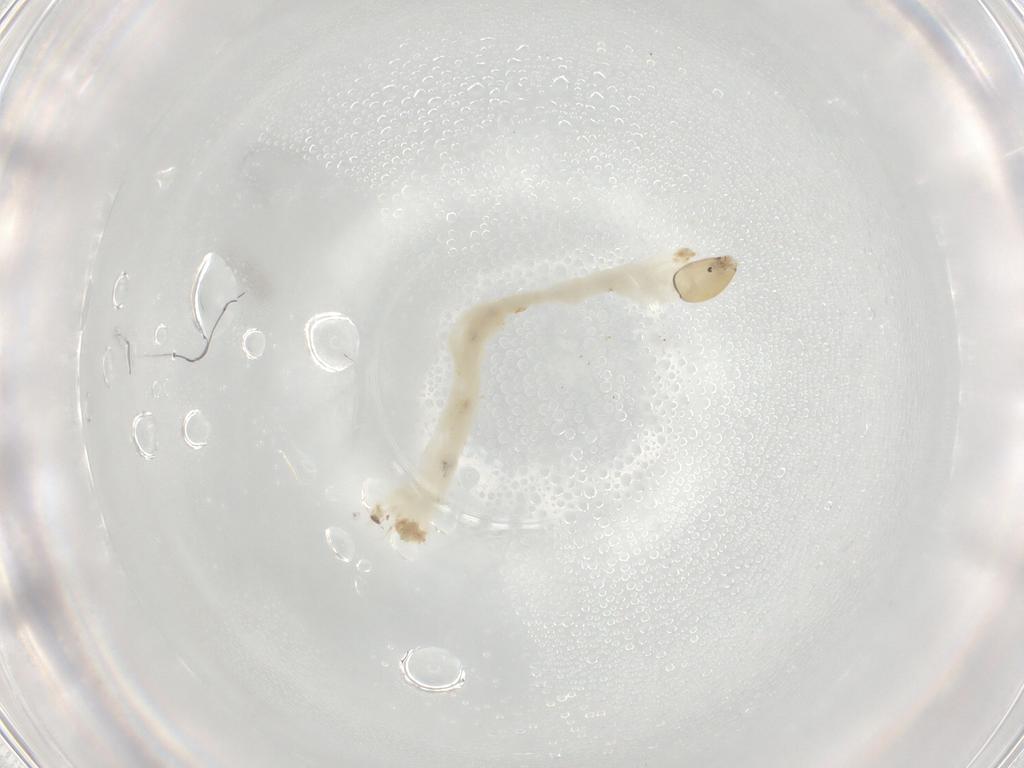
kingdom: Animalia
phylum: Arthropoda
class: Insecta
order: Diptera
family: Chironomidae
